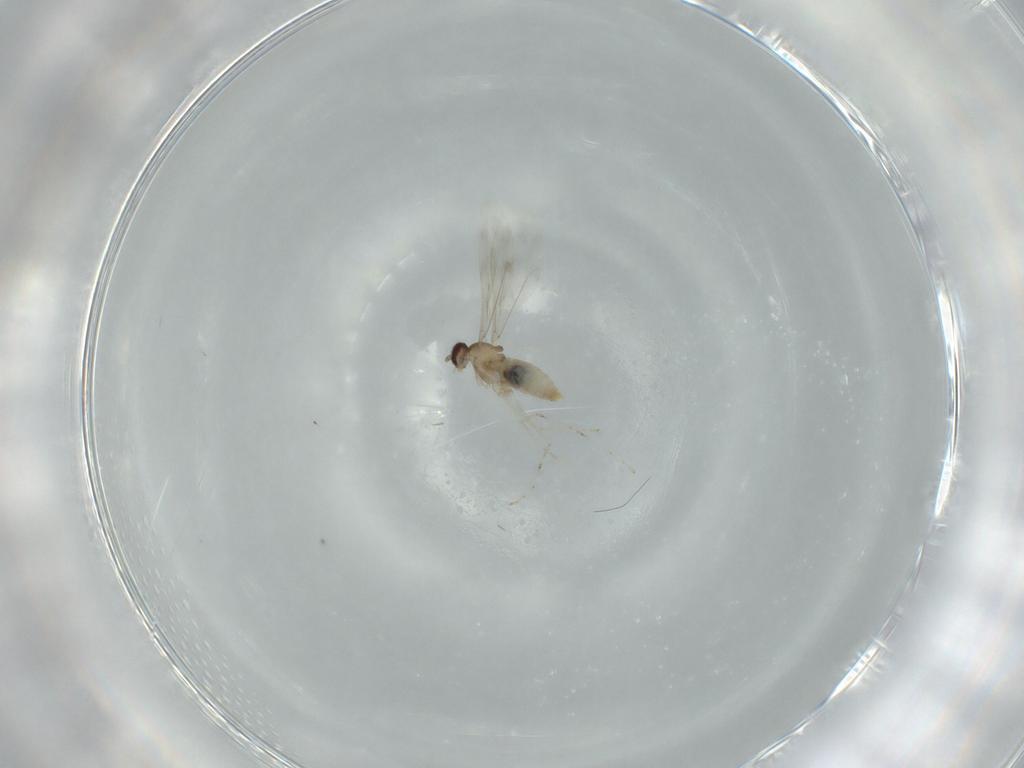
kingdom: Animalia
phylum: Arthropoda
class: Insecta
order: Diptera
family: Cecidomyiidae
